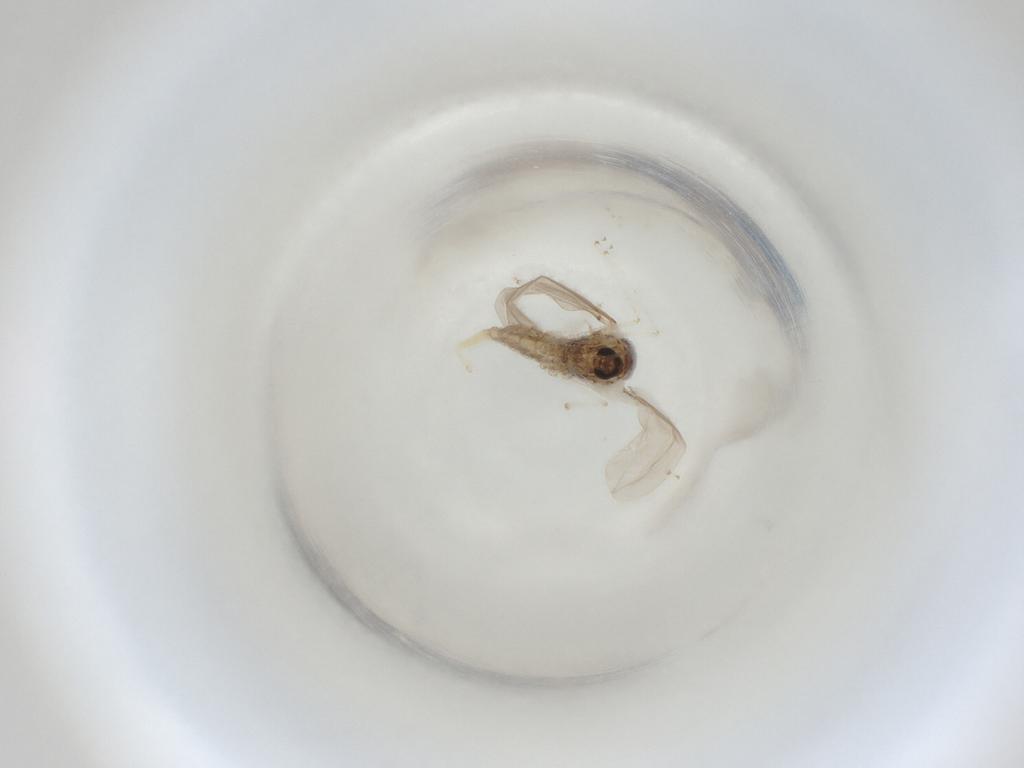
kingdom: Animalia
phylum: Arthropoda
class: Insecta
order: Diptera
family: Cecidomyiidae
